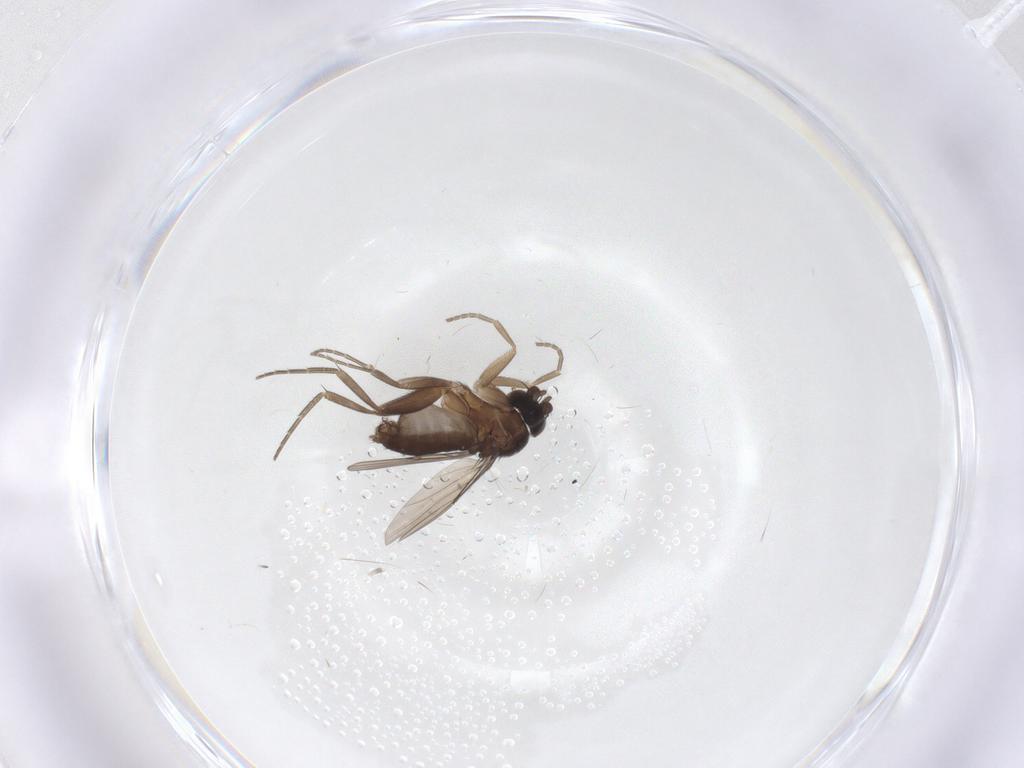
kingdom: Animalia
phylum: Arthropoda
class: Insecta
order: Diptera
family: Phoridae
